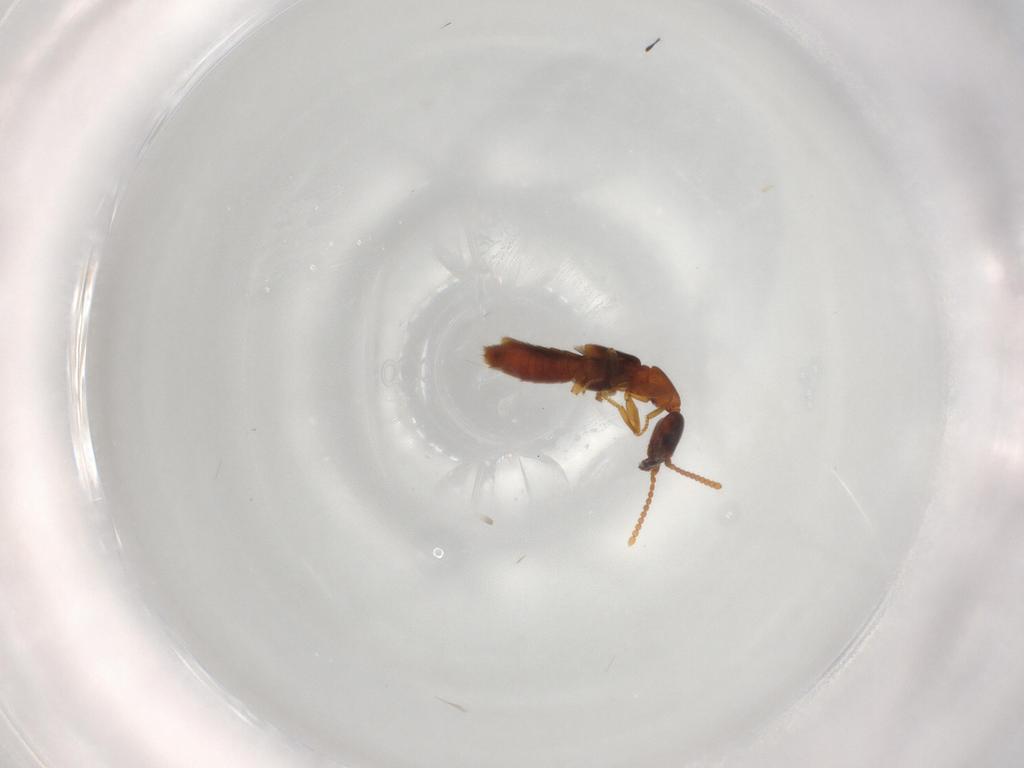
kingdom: Animalia
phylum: Arthropoda
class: Insecta
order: Coleoptera
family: Staphylinidae
